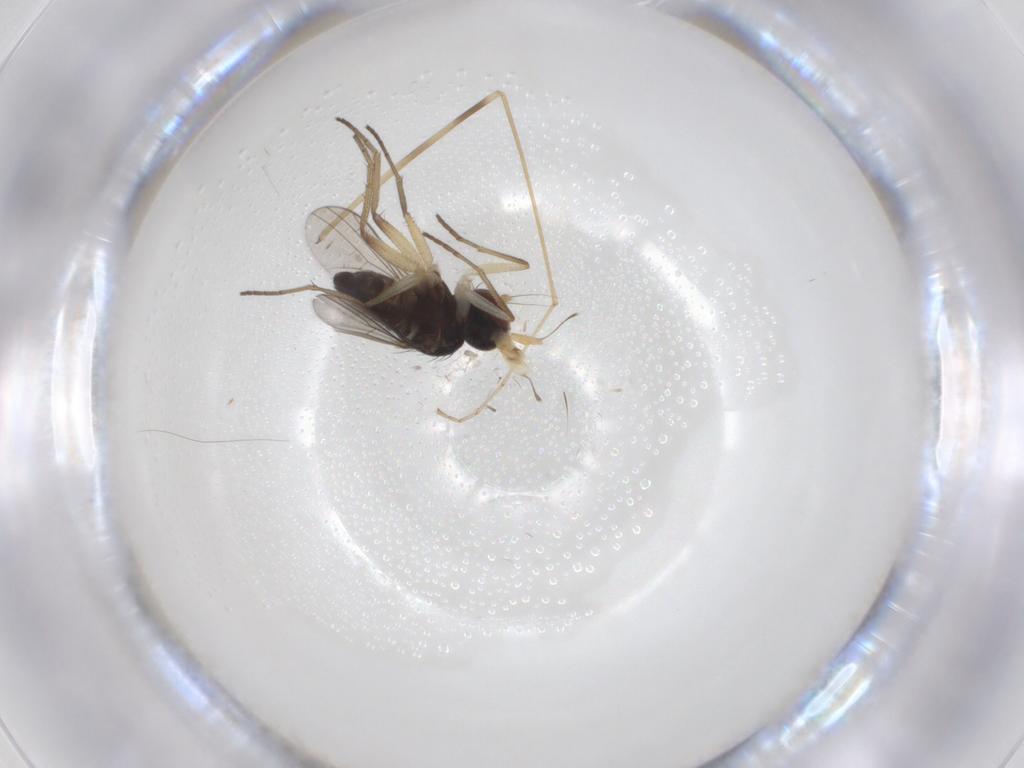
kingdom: Animalia
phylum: Arthropoda
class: Insecta
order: Diptera
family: Dolichopodidae
